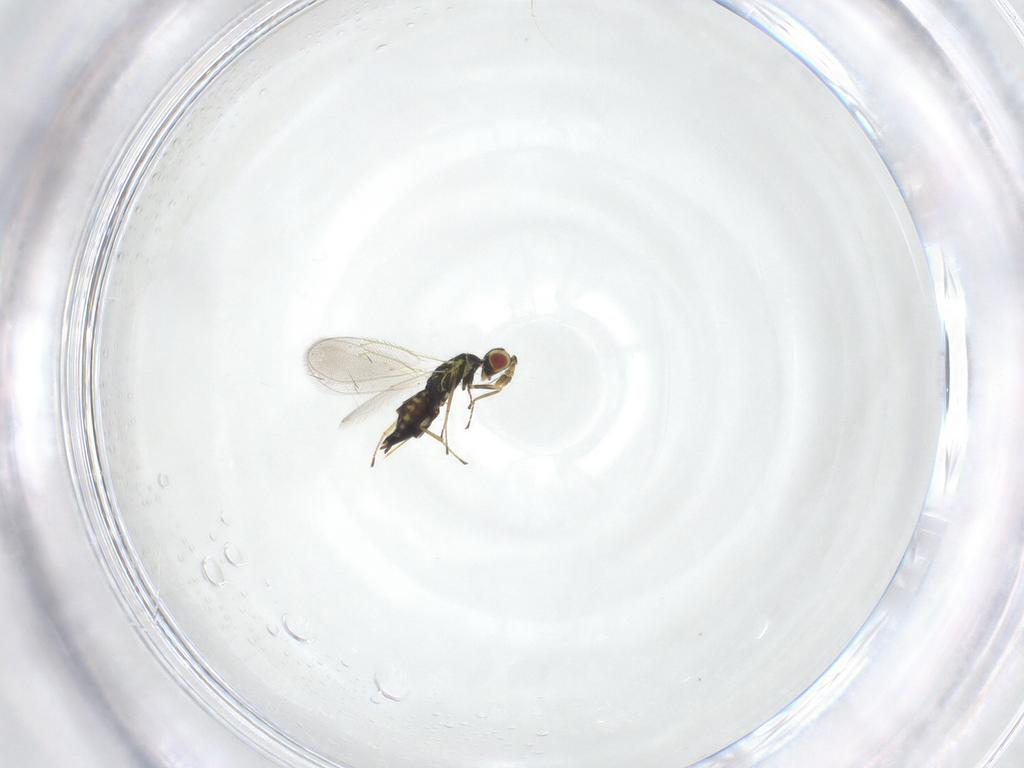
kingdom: Animalia
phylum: Arthropoda
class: Insecta
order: Hymenoptera
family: Eulophidae
